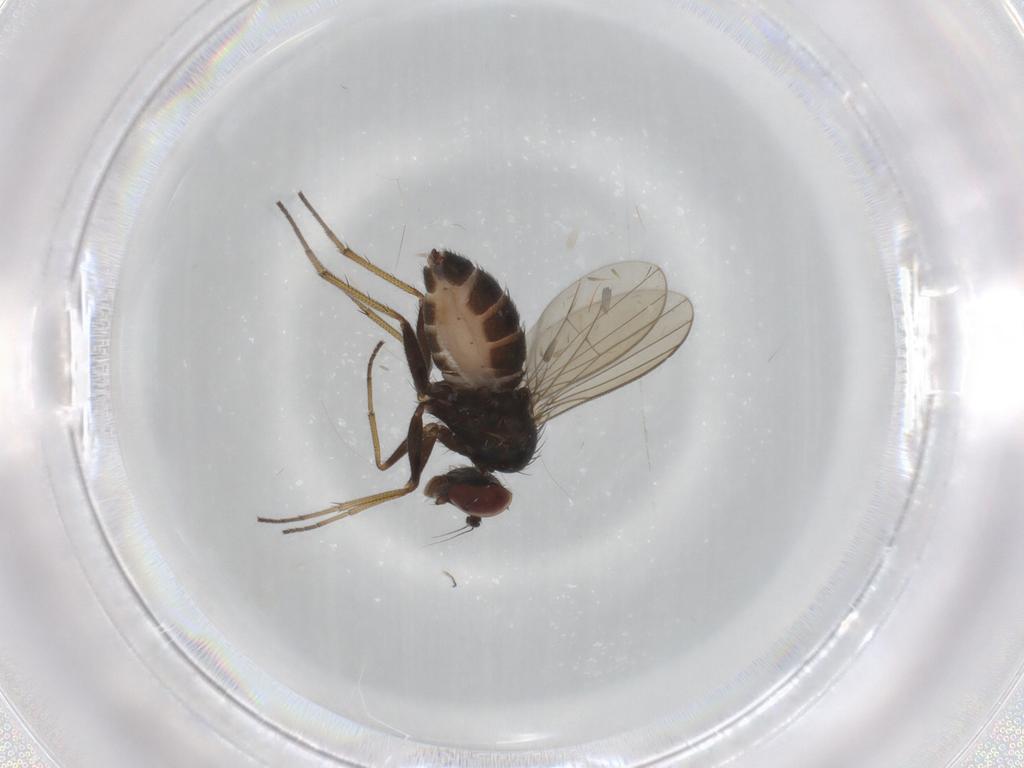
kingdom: Animalia
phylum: Arthropoda
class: Insecta
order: Diptera
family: Dolichopodidae
